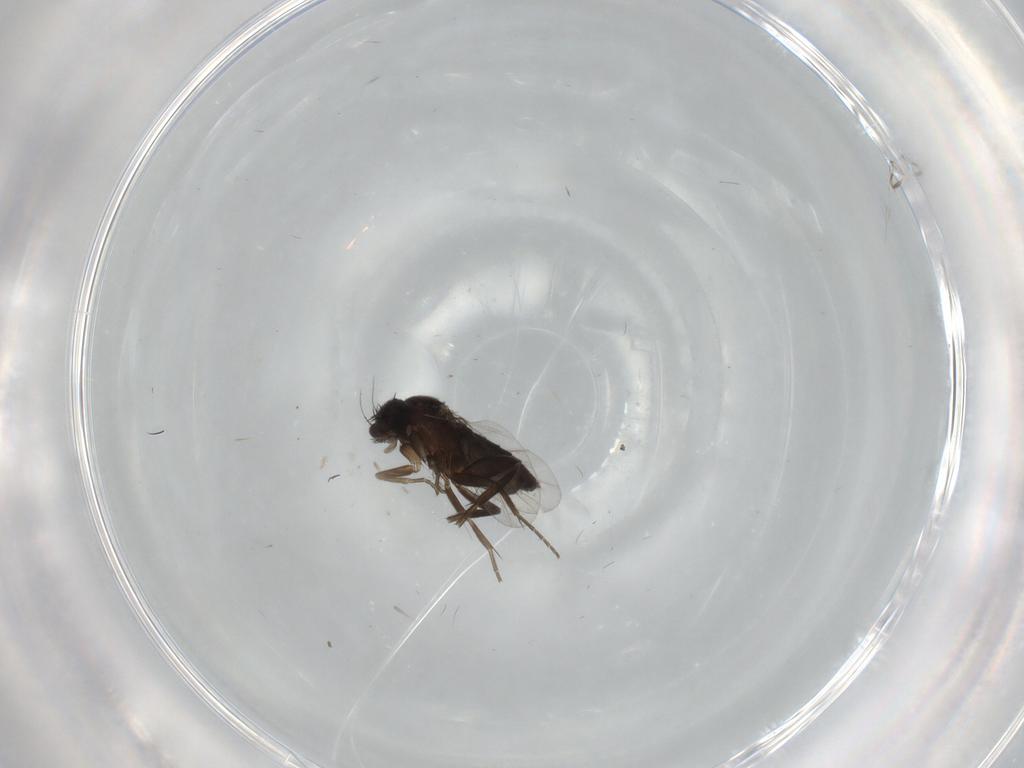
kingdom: Animalia
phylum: Arthropoda
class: Insecta
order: Diptera
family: Phoridae
